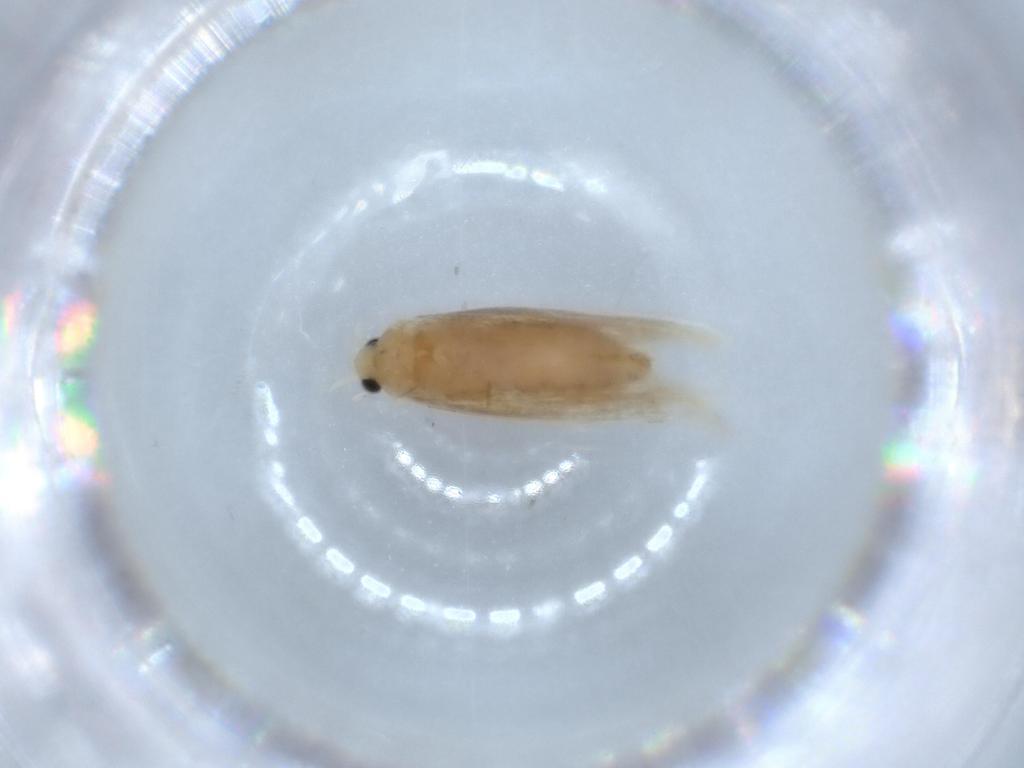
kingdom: Animalia
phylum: Arthropoda
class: Insecta
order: Lepidoptera
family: Dryadaulidae
